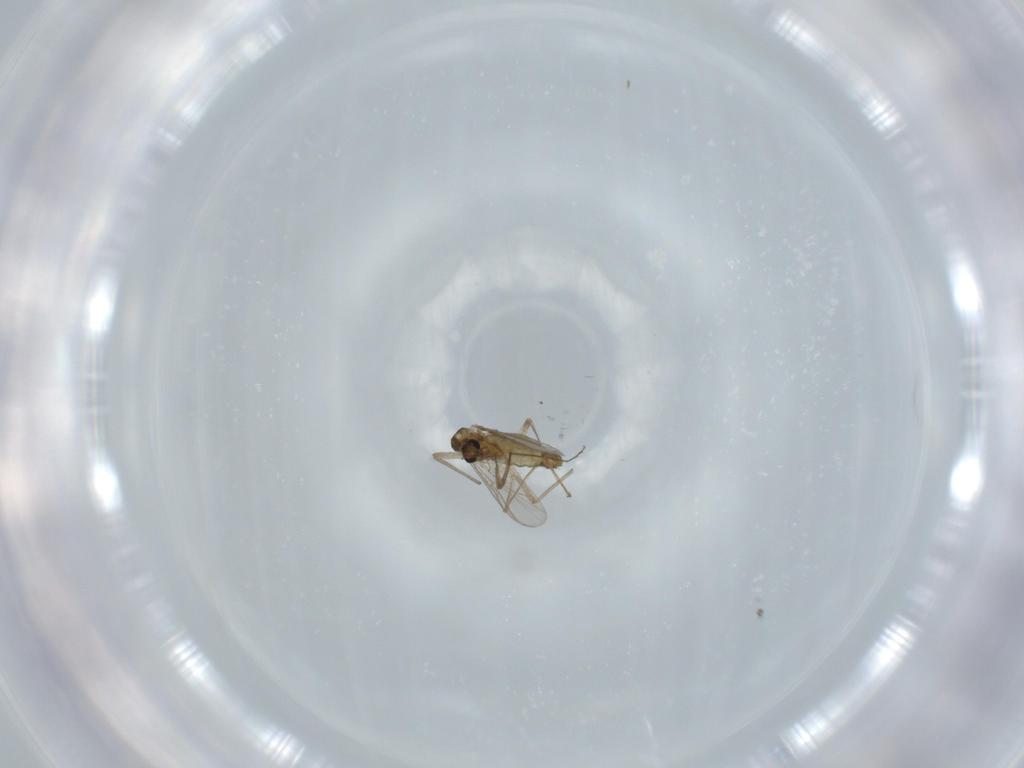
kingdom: Animalia
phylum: Arthropoda
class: Insecta
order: Diptera
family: Chironomidae
